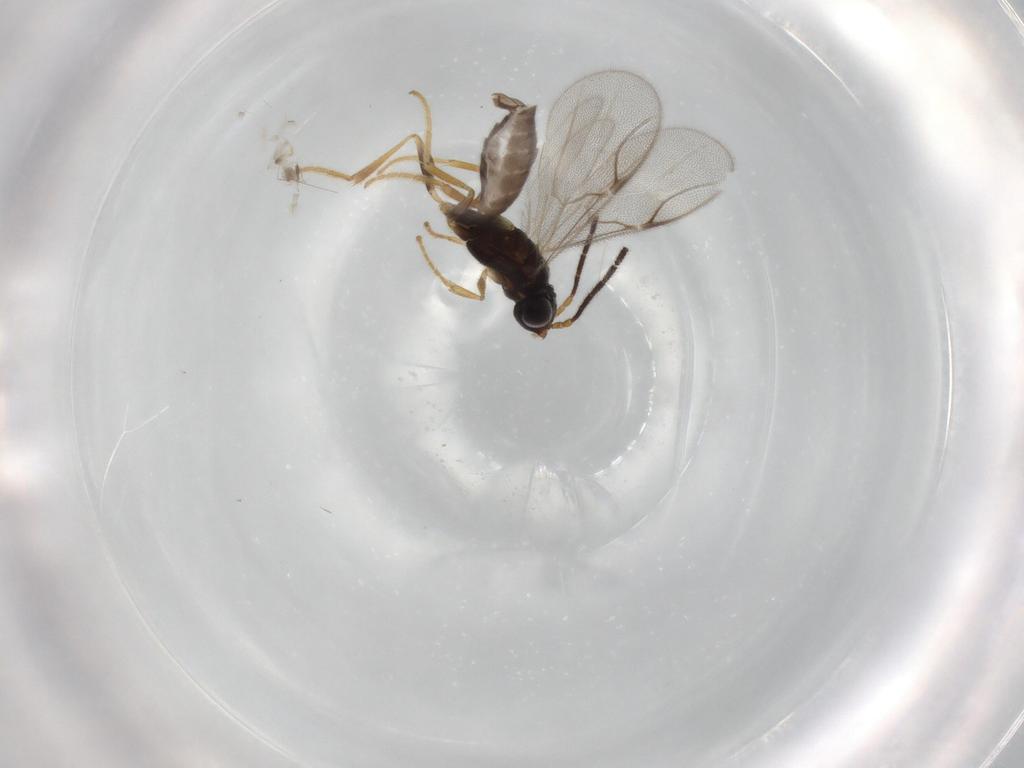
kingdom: Animalia
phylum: Arthropoda
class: Insecta
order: Hymenoptera
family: Dryinidae
